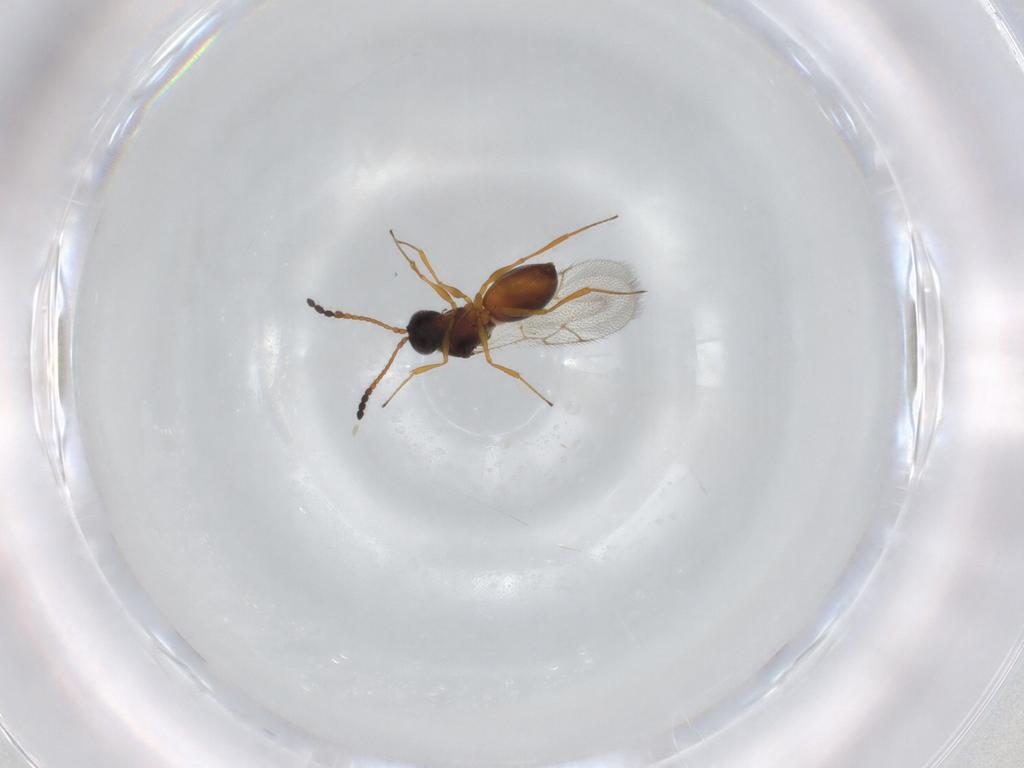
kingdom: Animalia
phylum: Arthropoda
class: Insecta
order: Hymenoptera
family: Figitidae
